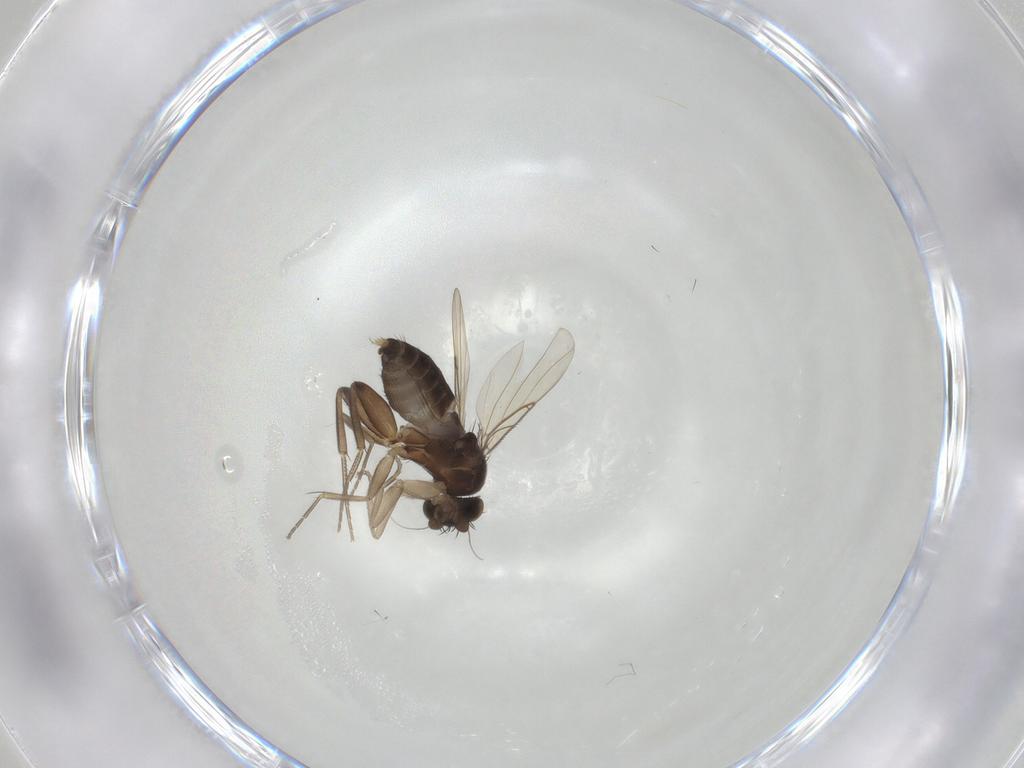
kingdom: Animalia
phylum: Arthropoda
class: Insecta
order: Diptera
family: Phoridae
